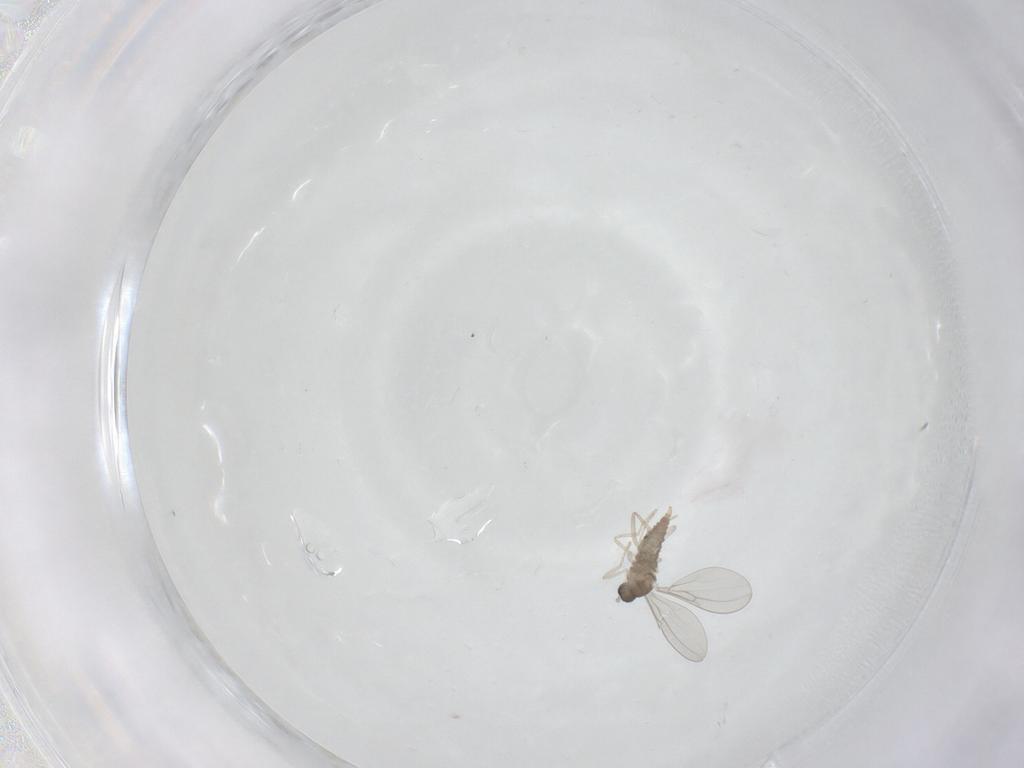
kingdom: Animalia
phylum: Arthropoda
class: Insecta
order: Diptera
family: Cecidomyiidae
